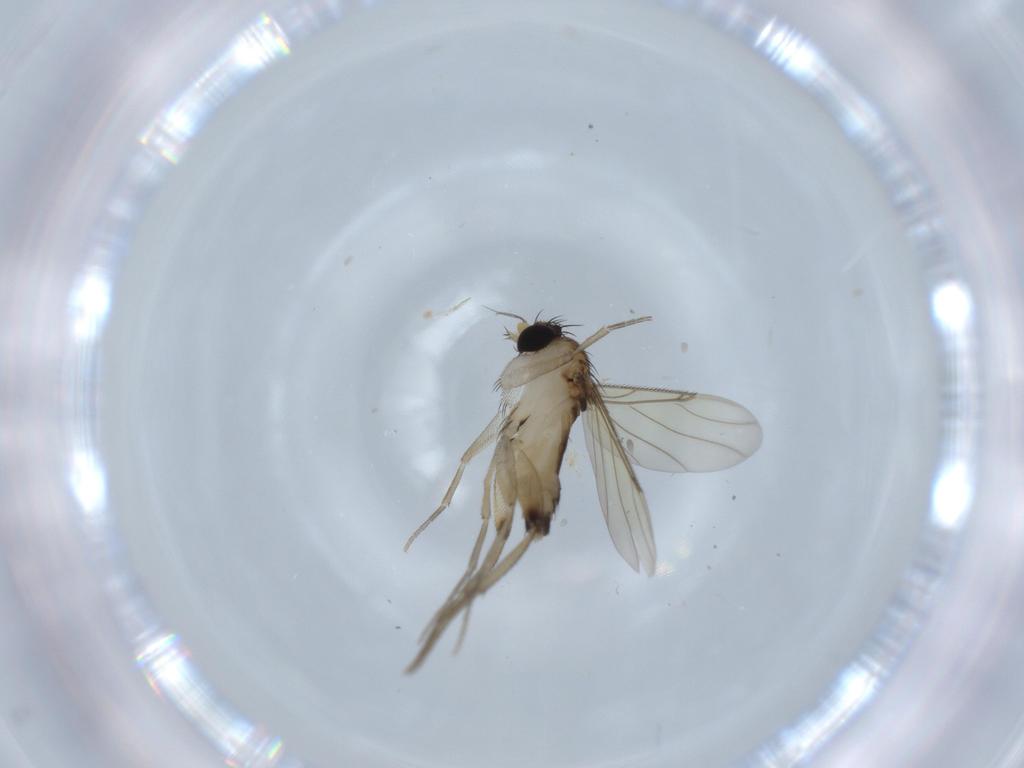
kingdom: Animalia
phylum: Arthropoda
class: Insecta
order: Diptera
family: Phoridae
